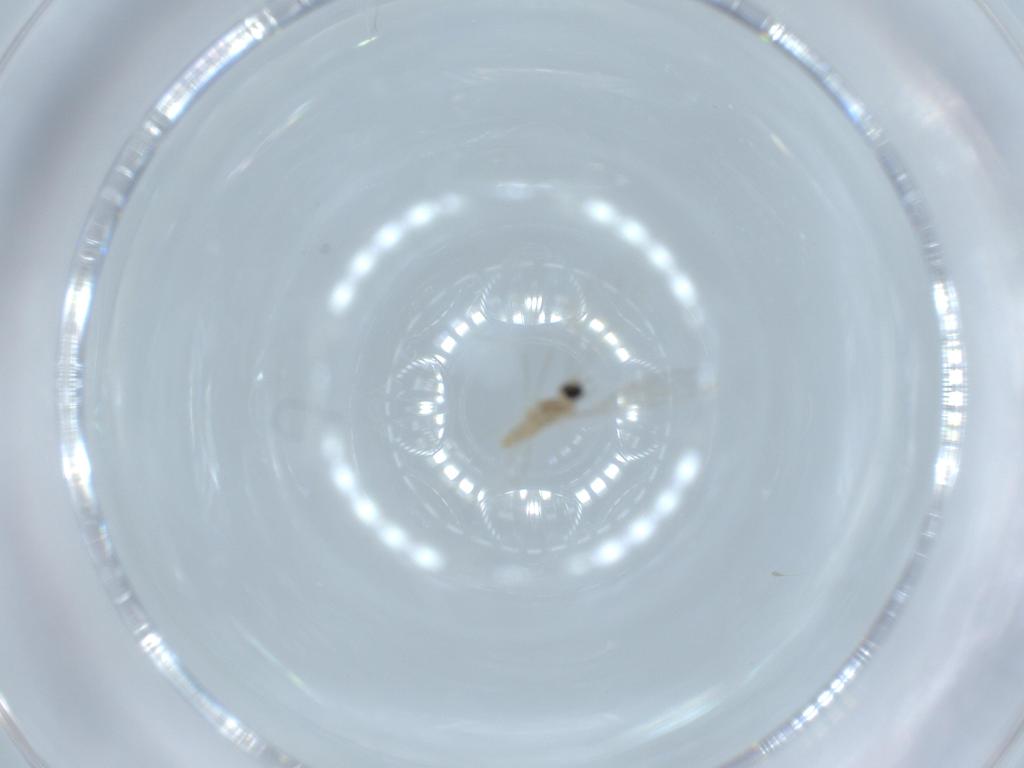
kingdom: Animalia
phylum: Arthropoda
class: Insecta
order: Diptera
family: Cecidomyiidae
